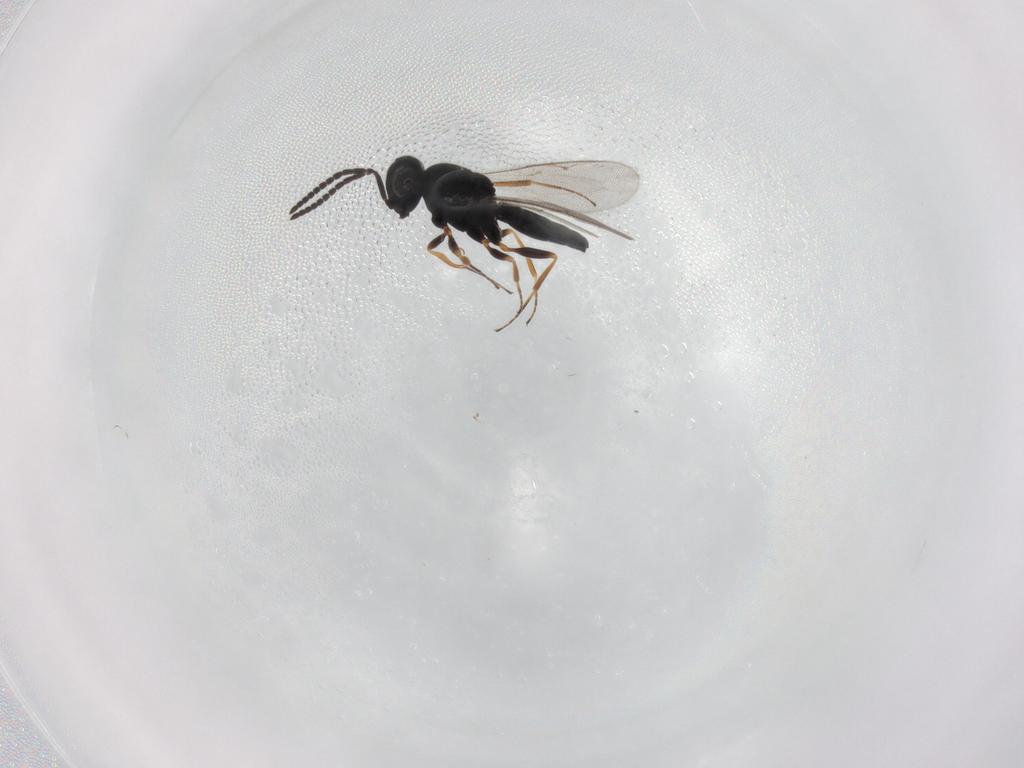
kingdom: Animalia
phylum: Arthropoda
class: Insecta
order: Hymenoptera
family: Scelionidae
